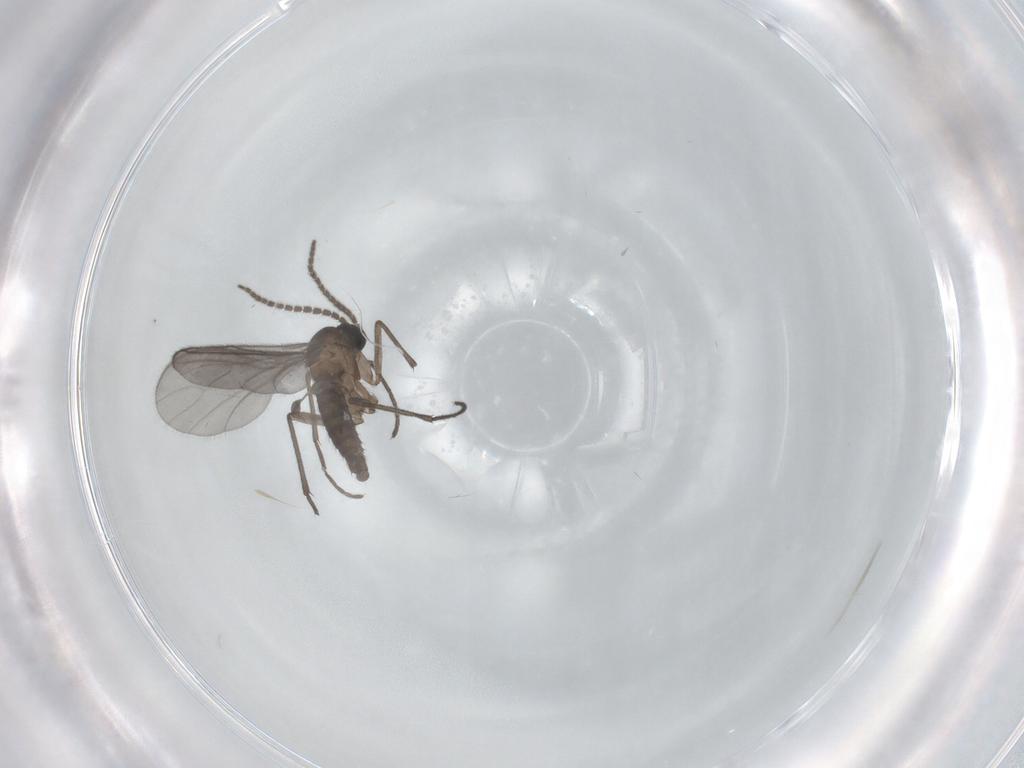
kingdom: Animalia
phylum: Arthropoda
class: Insecta
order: Diptera
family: Sciaridae
